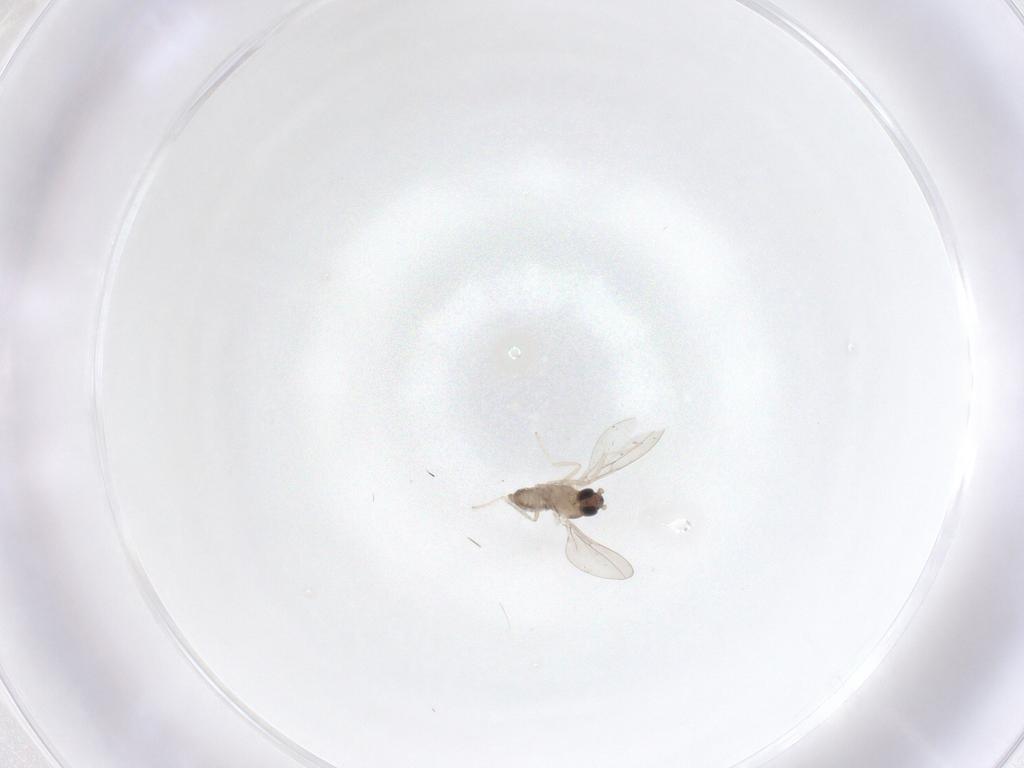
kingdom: Animalia
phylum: Arthropoda
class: Insecta
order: Diptera
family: Cecidomyiidae
